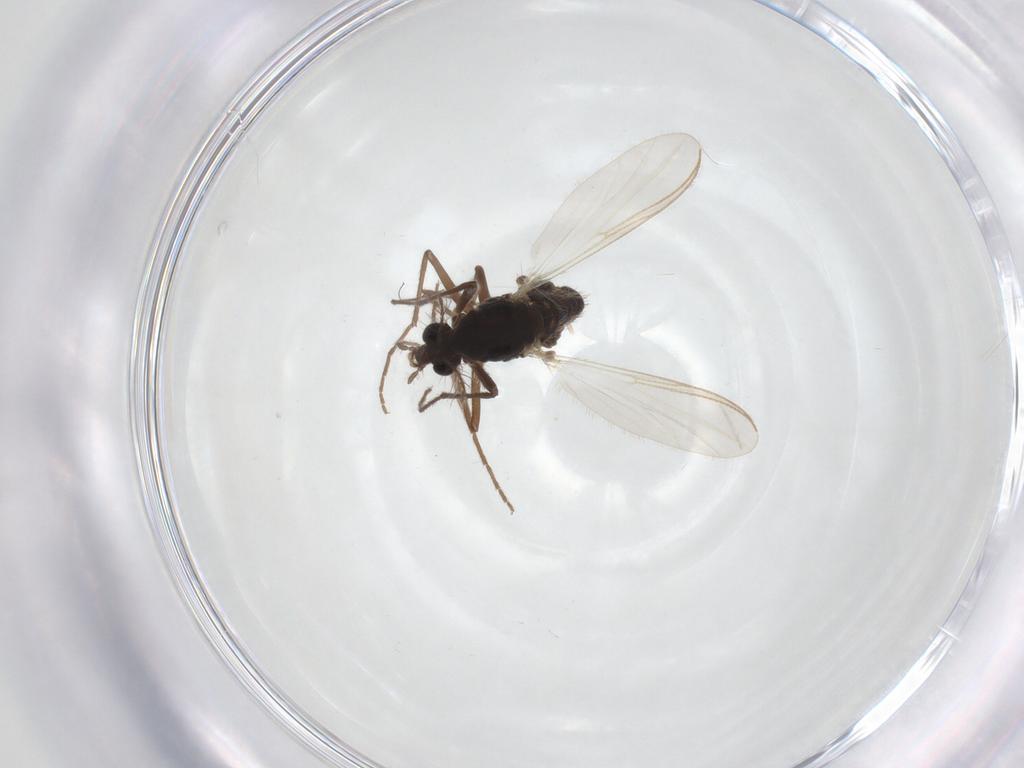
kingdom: Animalia
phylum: Arthropoda
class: Insecta
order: Diptera
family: Chironomidae
